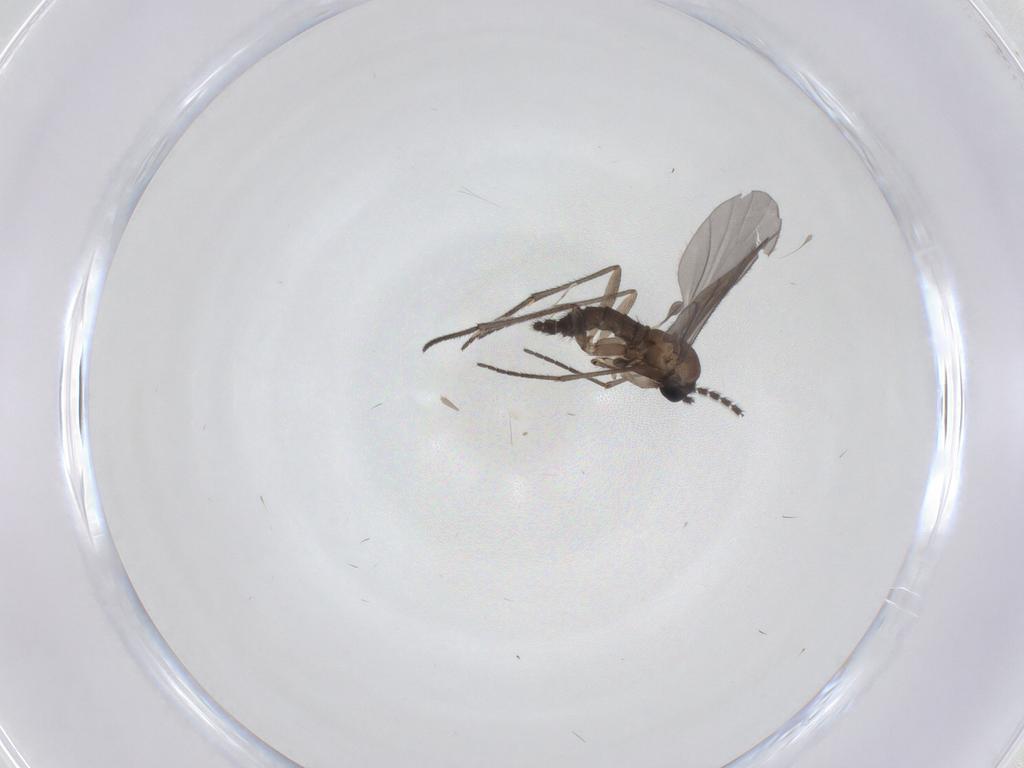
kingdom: Animalia
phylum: Arthropoda
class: Insecta
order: Diptera
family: Sciaridae
